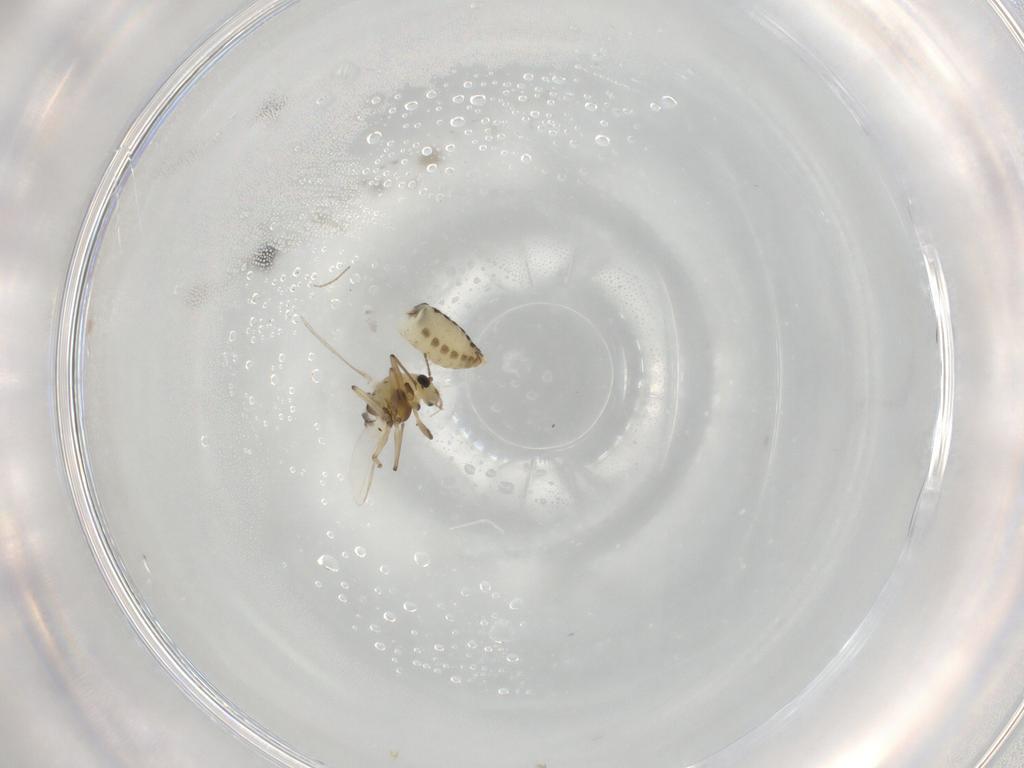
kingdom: Animalia
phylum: Arthropoda
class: Insecta
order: Diptera
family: Chironomidae
